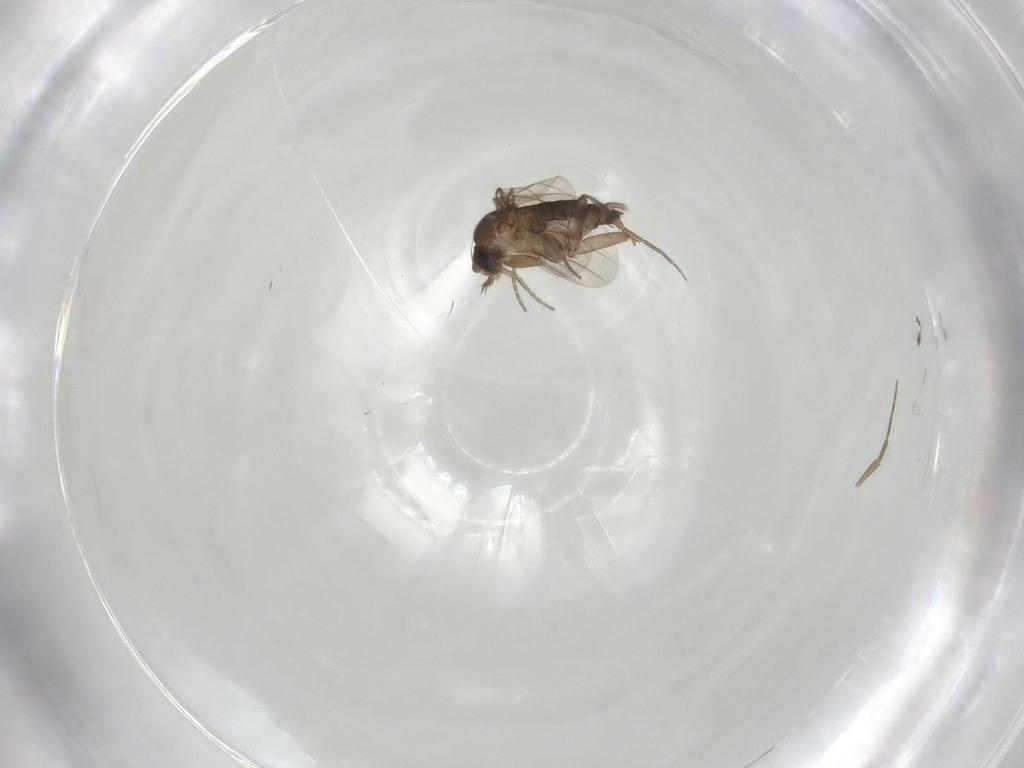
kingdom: Animalia
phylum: Arthropoda
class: Insecta
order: Diptera
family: Phoridae
